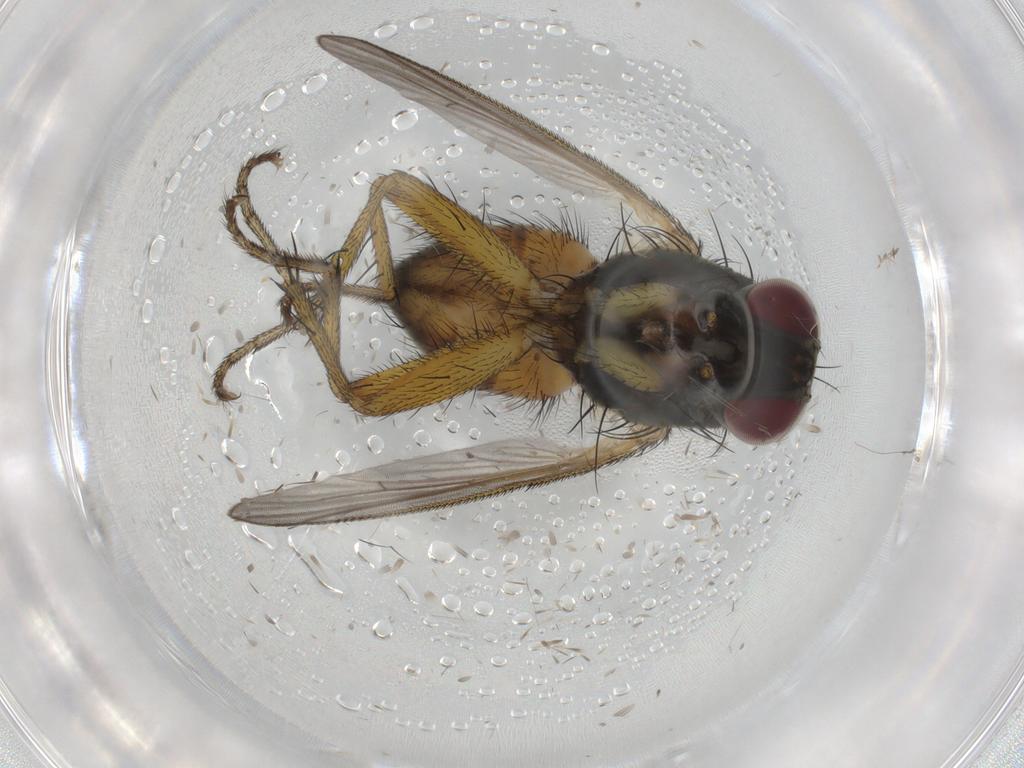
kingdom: Animalia
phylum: Arthropoda
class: Insecta
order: Diptera
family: Muscidae
